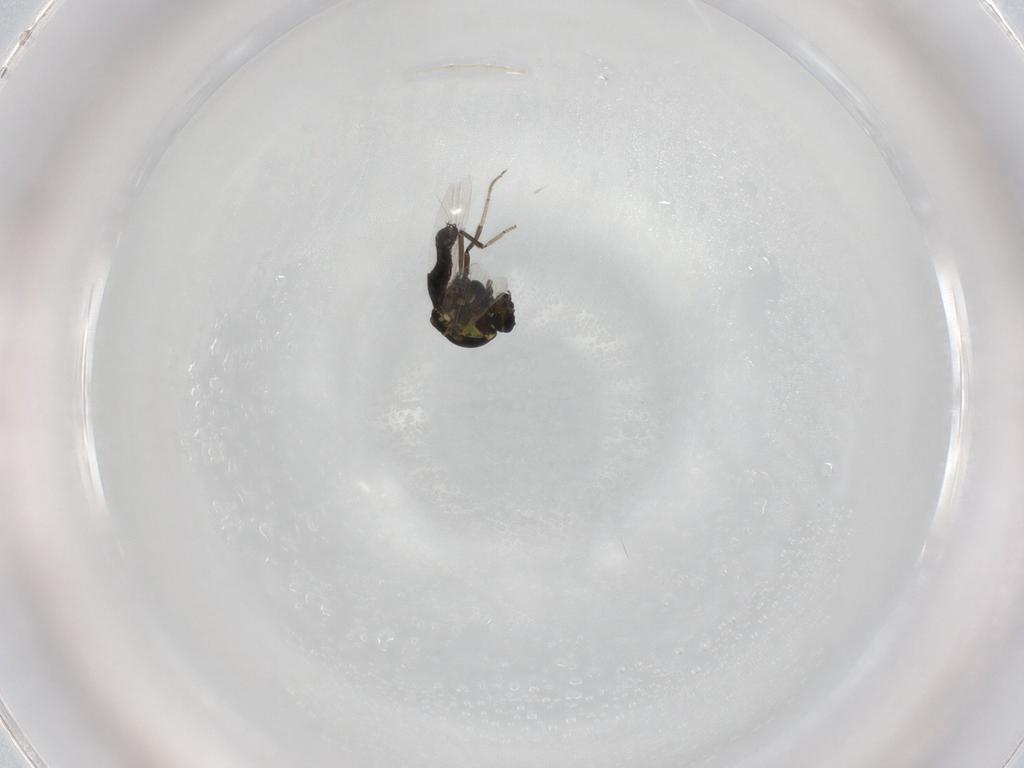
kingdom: Animalia
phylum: Arthropoda
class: Insecta
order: Diptera
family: Ceratopogonidae
